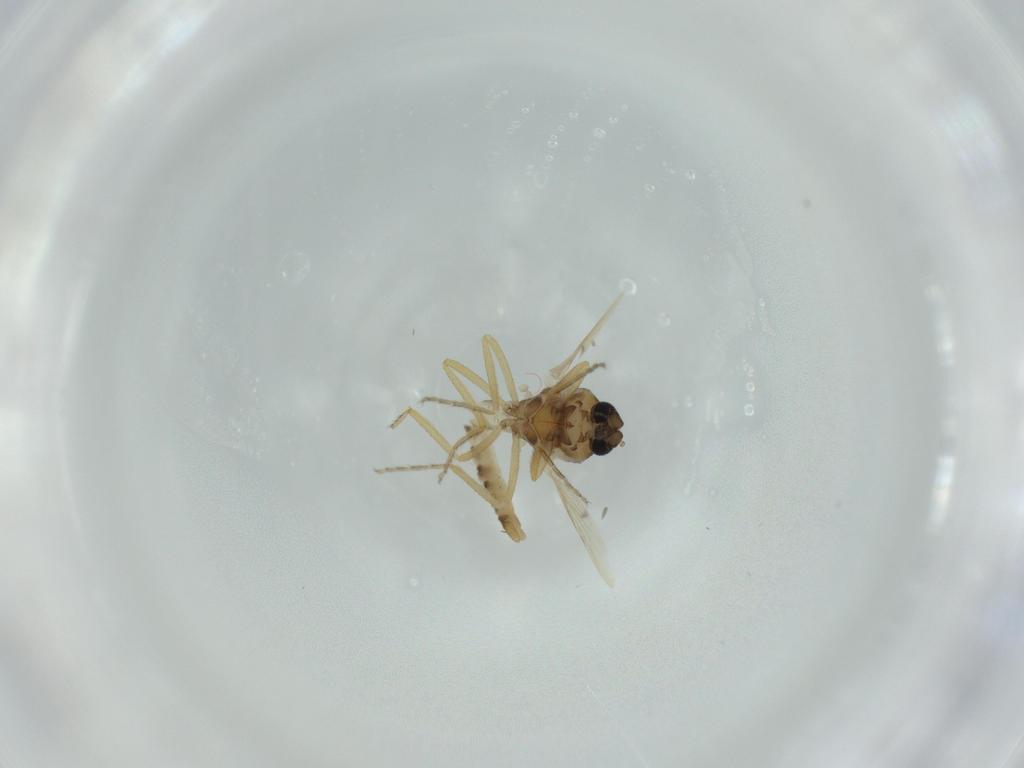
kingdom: Animalia
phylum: Arthropoda
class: Insecta
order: Diptera
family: Ceratopogonidae
